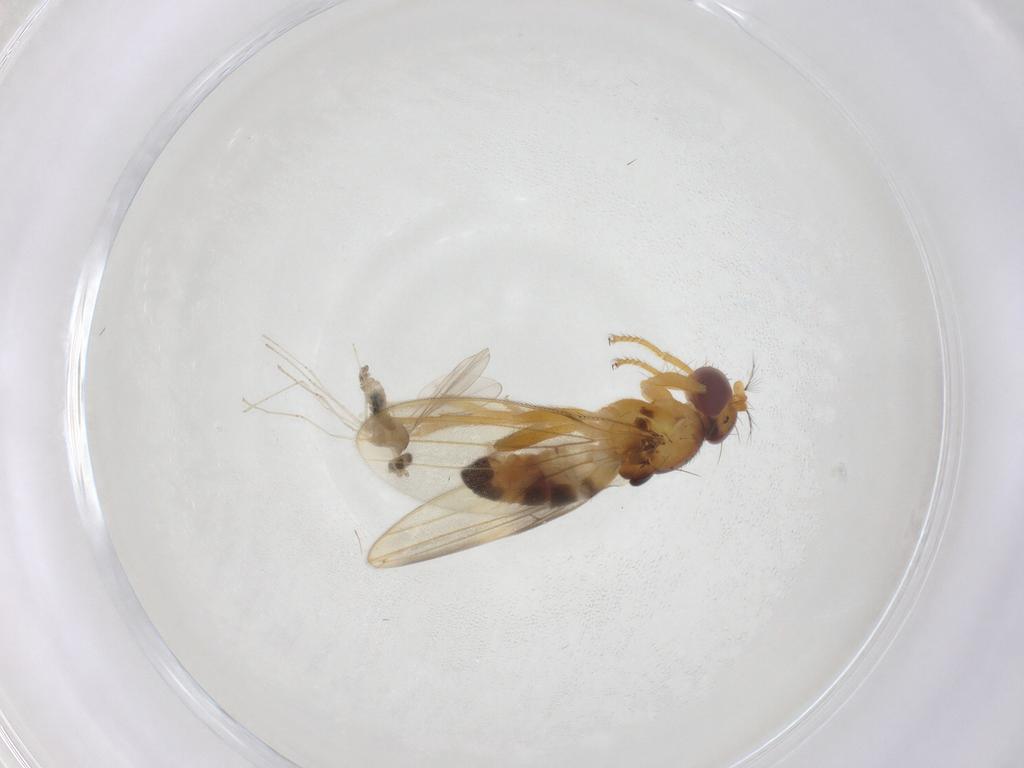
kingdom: Animalia
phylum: Arthropoda
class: Insecta
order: Diptera
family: Periscelididae
